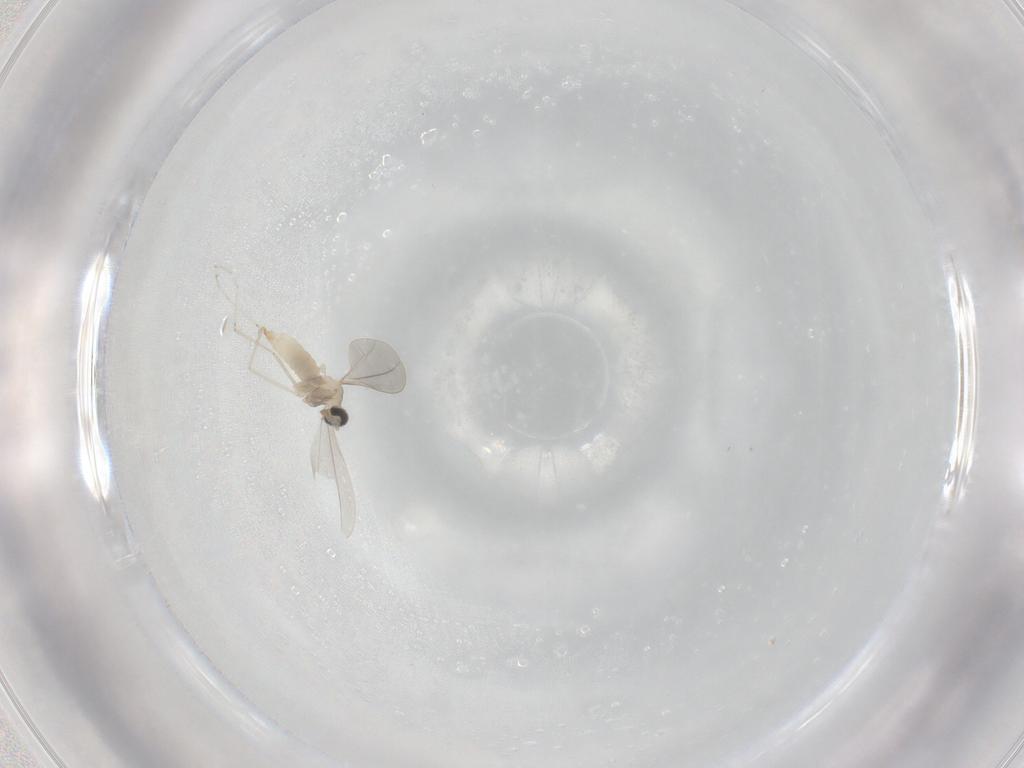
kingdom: Animalia
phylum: Arthropoda
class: Insecta
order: Diptera
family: Cecidomyiidae
